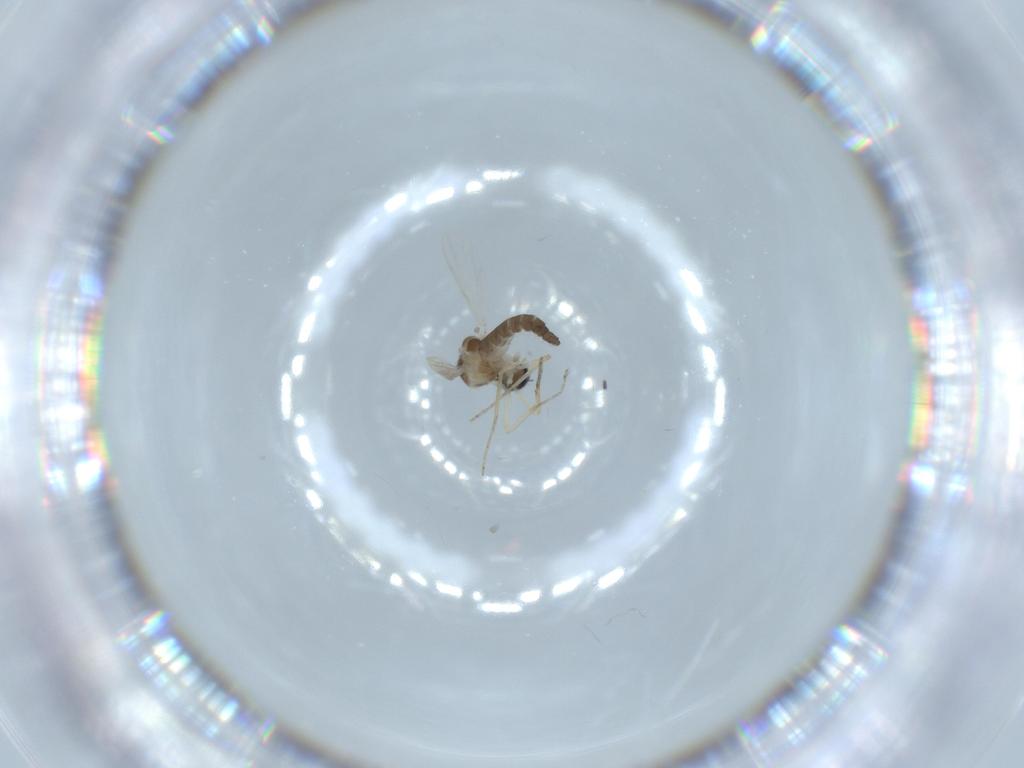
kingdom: Animalia
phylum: Arthropoda
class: Insecta
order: Diptera
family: Ceratopogonidae
